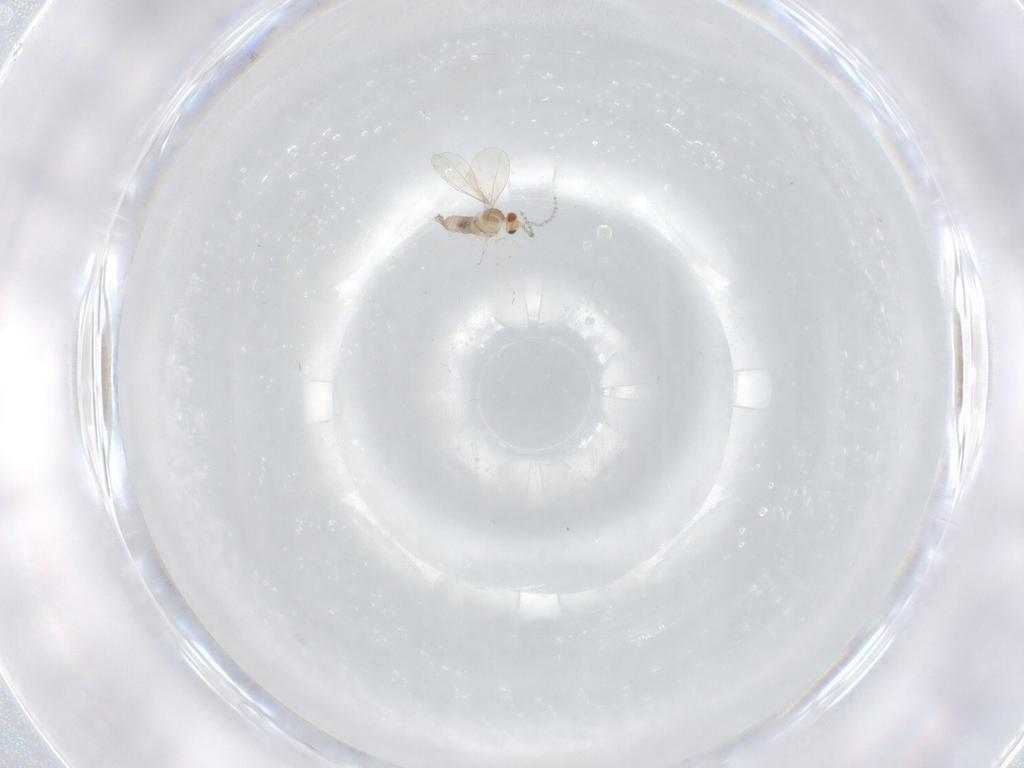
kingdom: Animalia
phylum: Arthropoda
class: Insecta
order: Diptera
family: Cecidomyiidae
